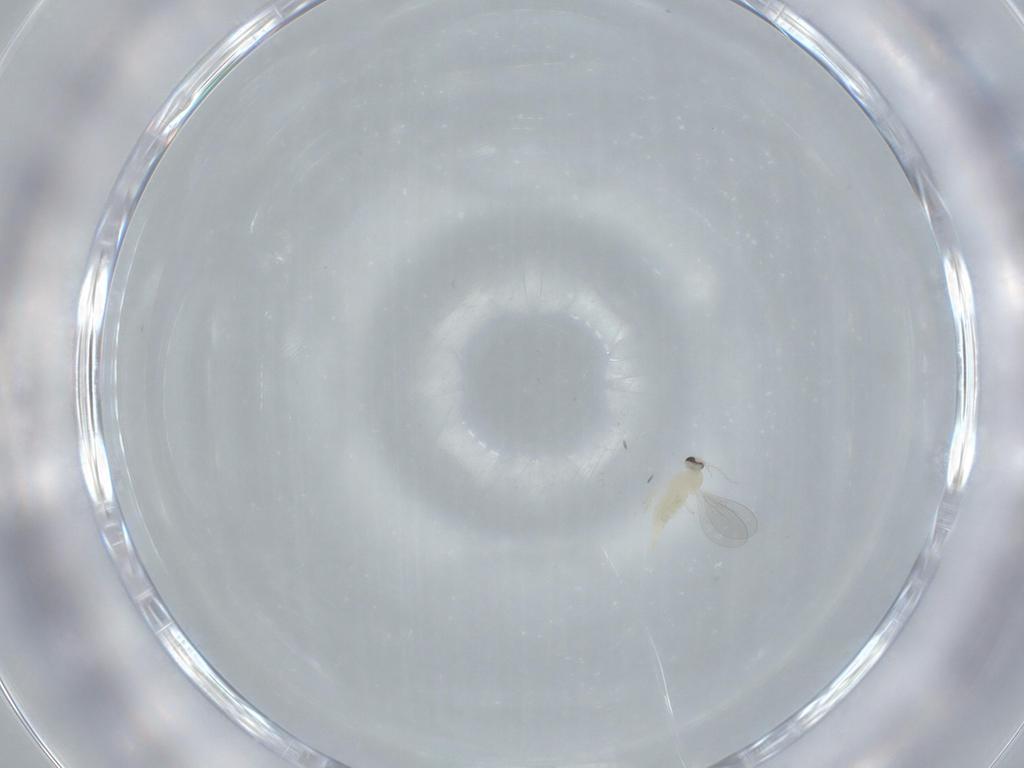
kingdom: Animalia
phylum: Arthropoda
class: Insecta
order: Diptera
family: Cecidomyiidae
